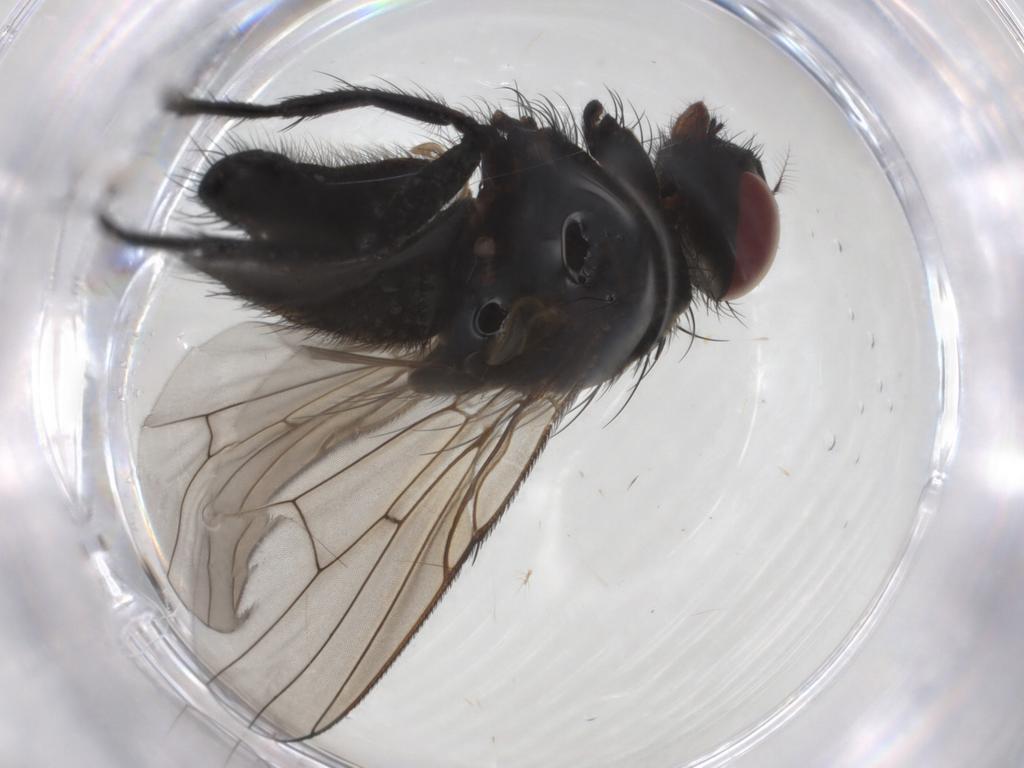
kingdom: Animalia
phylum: Arthropoda
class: Insecta
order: Diptera
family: Muscidae
